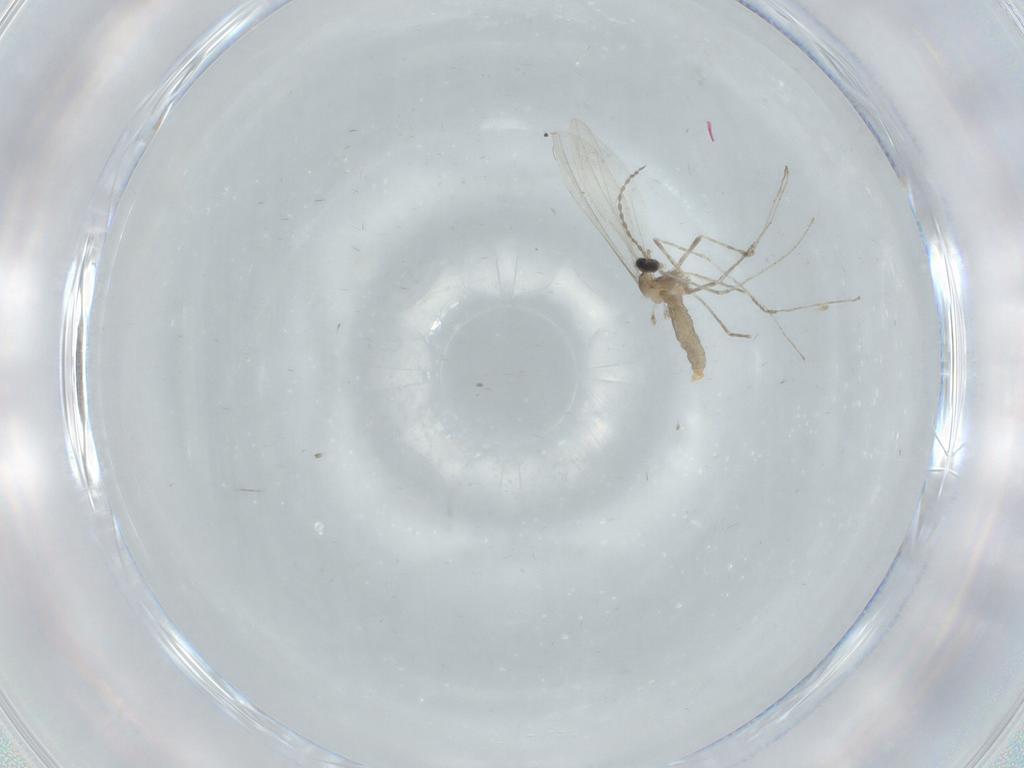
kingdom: Animalia
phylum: Arthropoda
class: Insecta
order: Diptera
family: Cecidomyiidae
